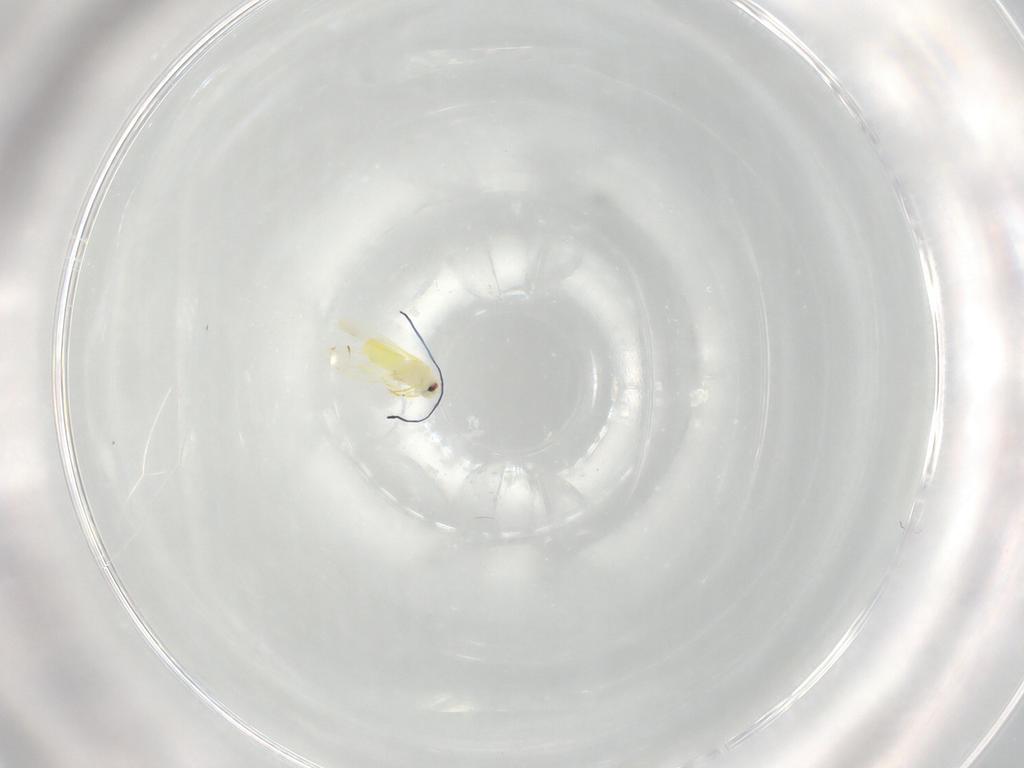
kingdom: Animalia
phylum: Arthropoda
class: Insecta
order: Hemiptera
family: Aleyrodidae
